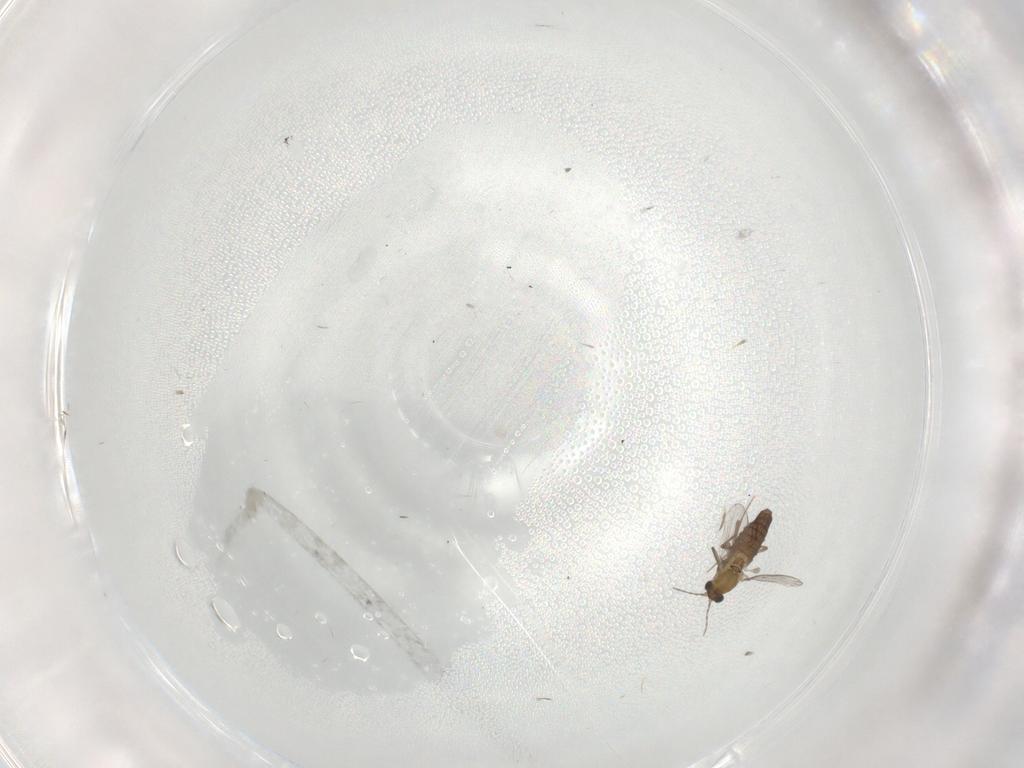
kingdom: Animalia
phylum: Arthropoda
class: Insecta
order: Diptera
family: Chironomidae
